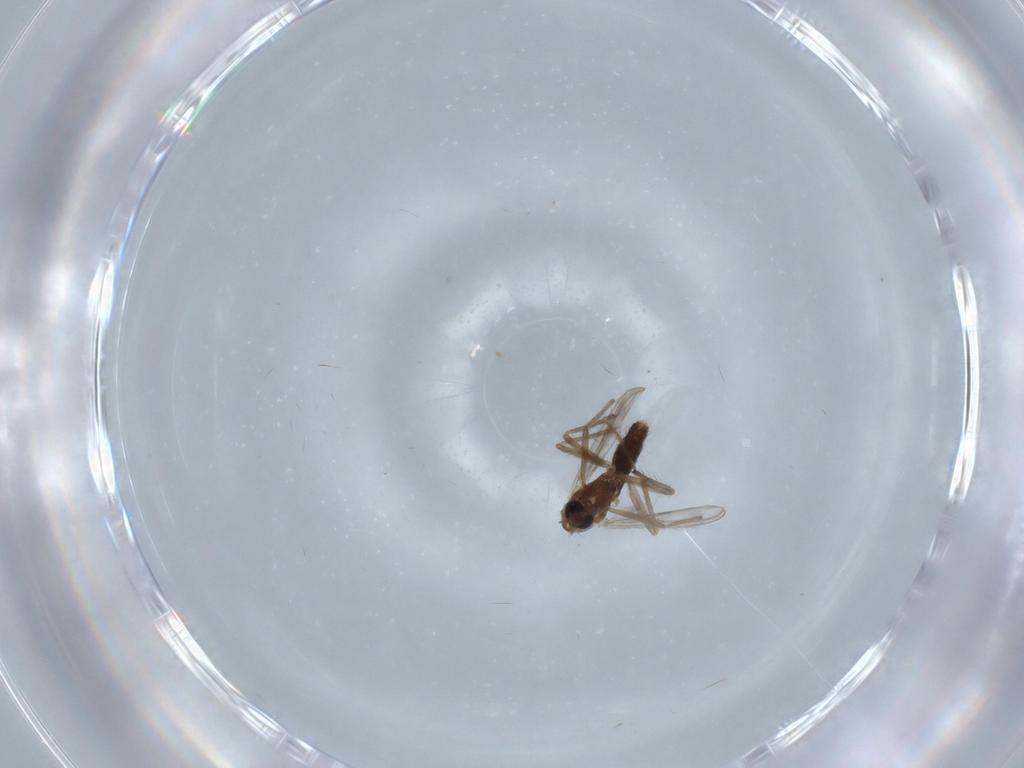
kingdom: Animalia
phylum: Arthropoda
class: Insecta
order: Diptera
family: Chironomidae
